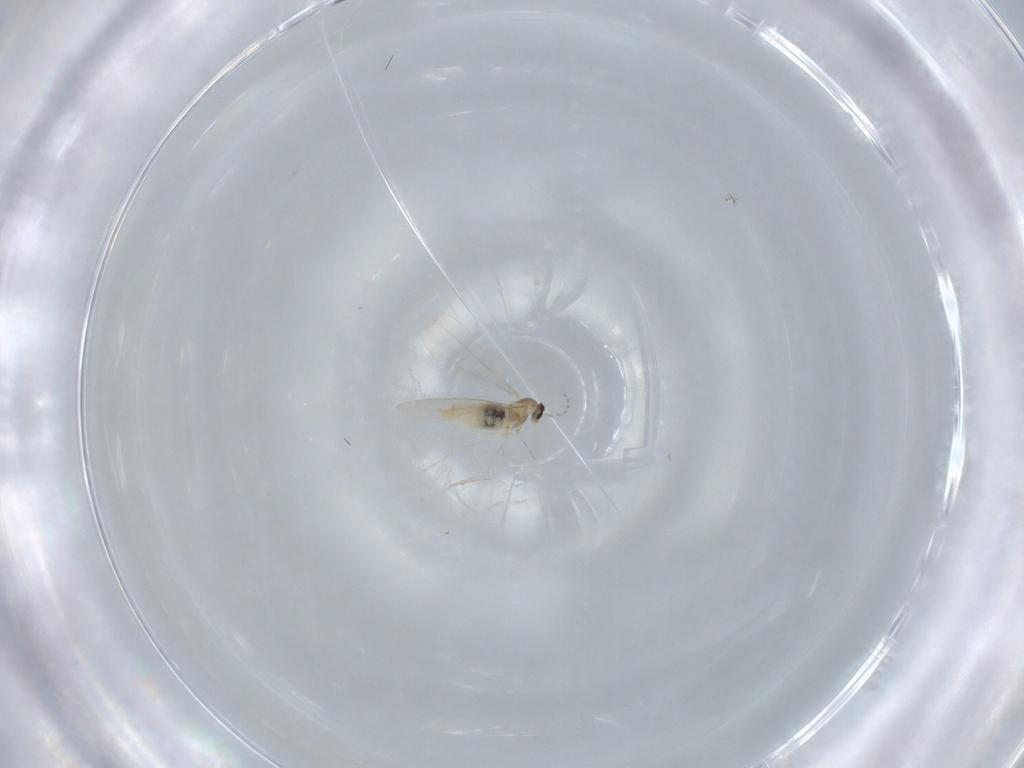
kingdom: Animalia
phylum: Arthropoda
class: Insecta
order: Diptera
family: Cecidomyiidae
